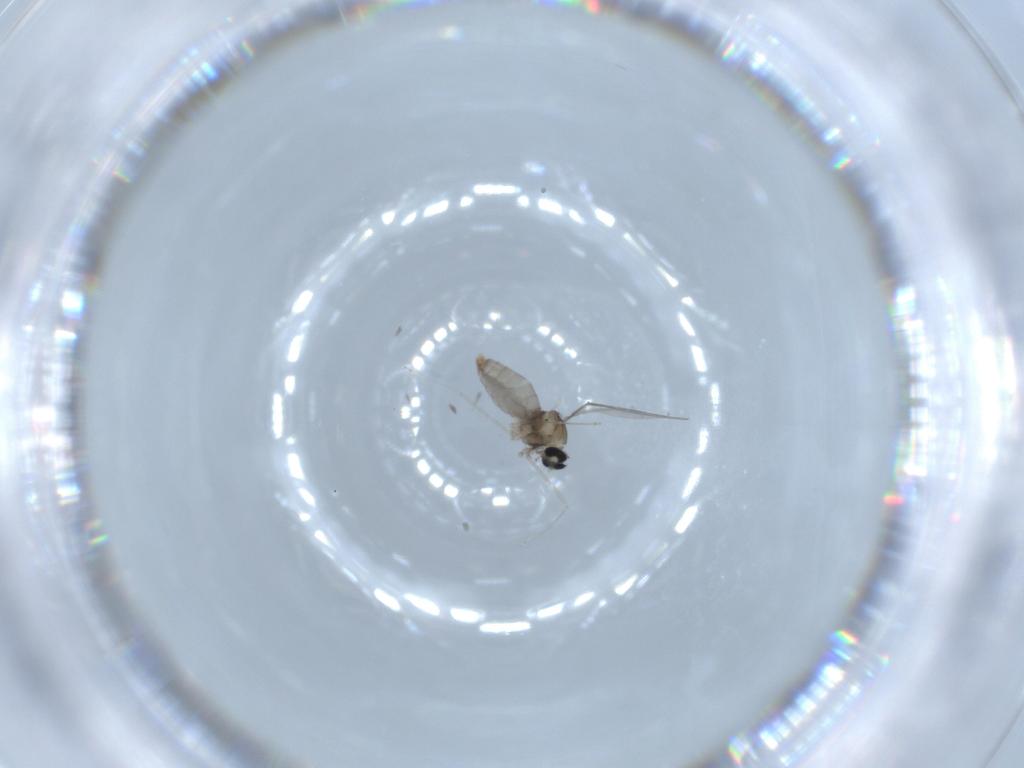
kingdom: Animalia
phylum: Arthropoda
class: Insecta
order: Diptera
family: Cecidomyiidae
